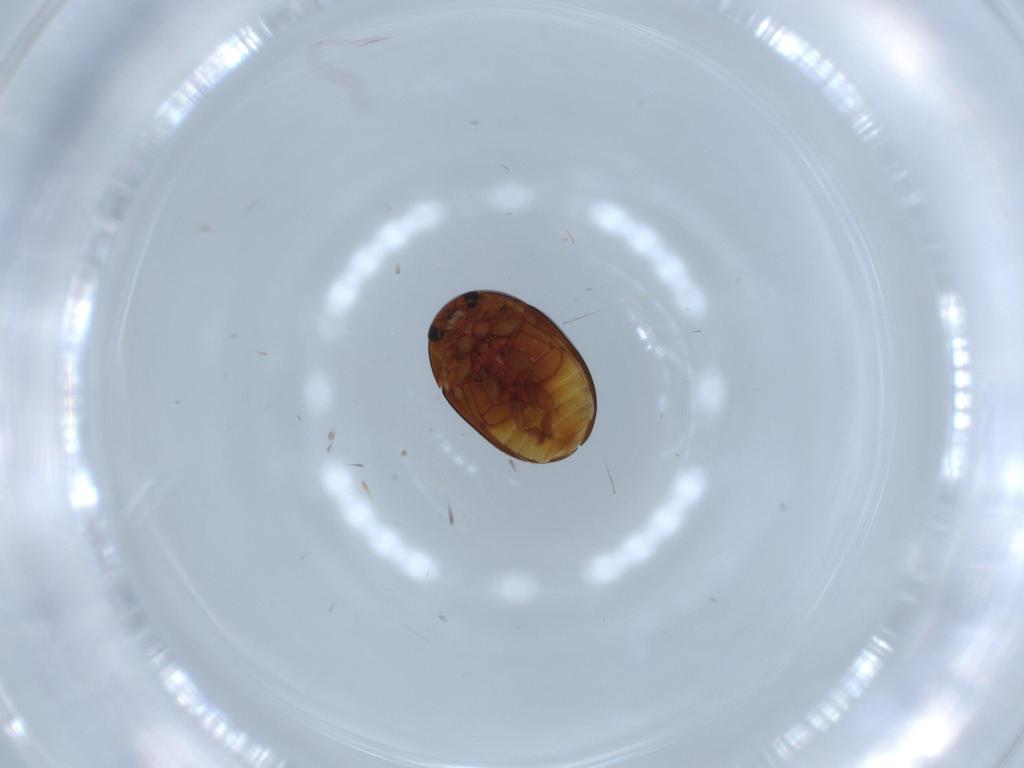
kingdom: Animalia
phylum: Arthropoda
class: Insecta
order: Coleoptera
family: Phalacridae
